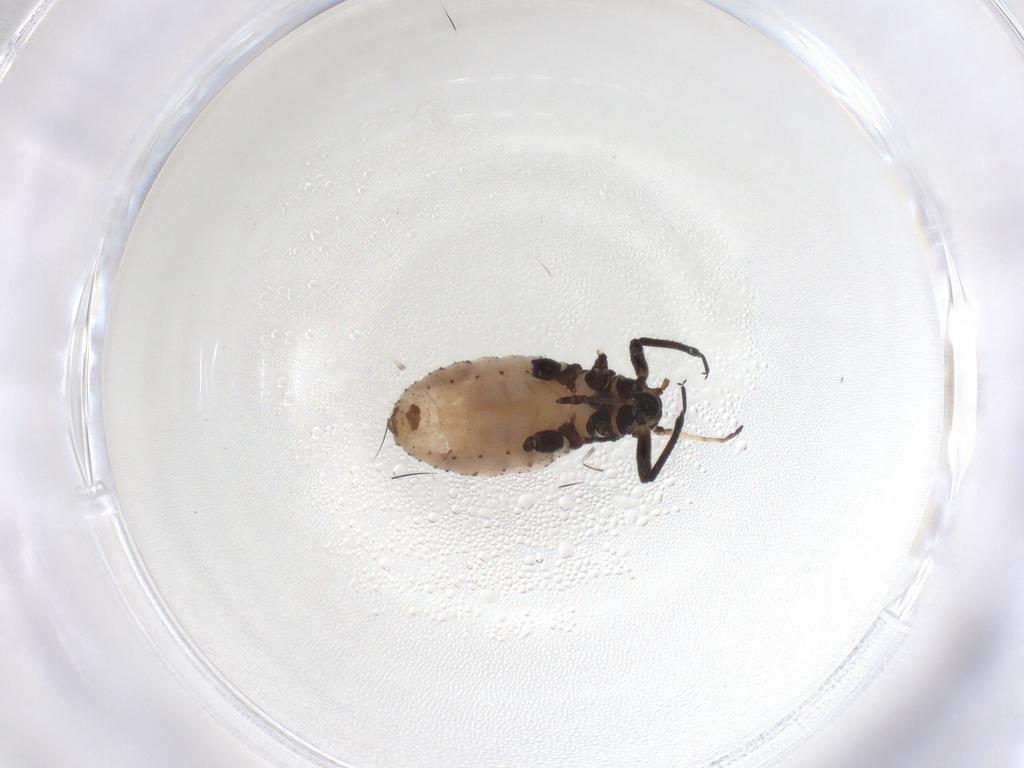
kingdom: Animalia
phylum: Arthropoda
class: Insecta
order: Hemiptera
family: Lachnidae
